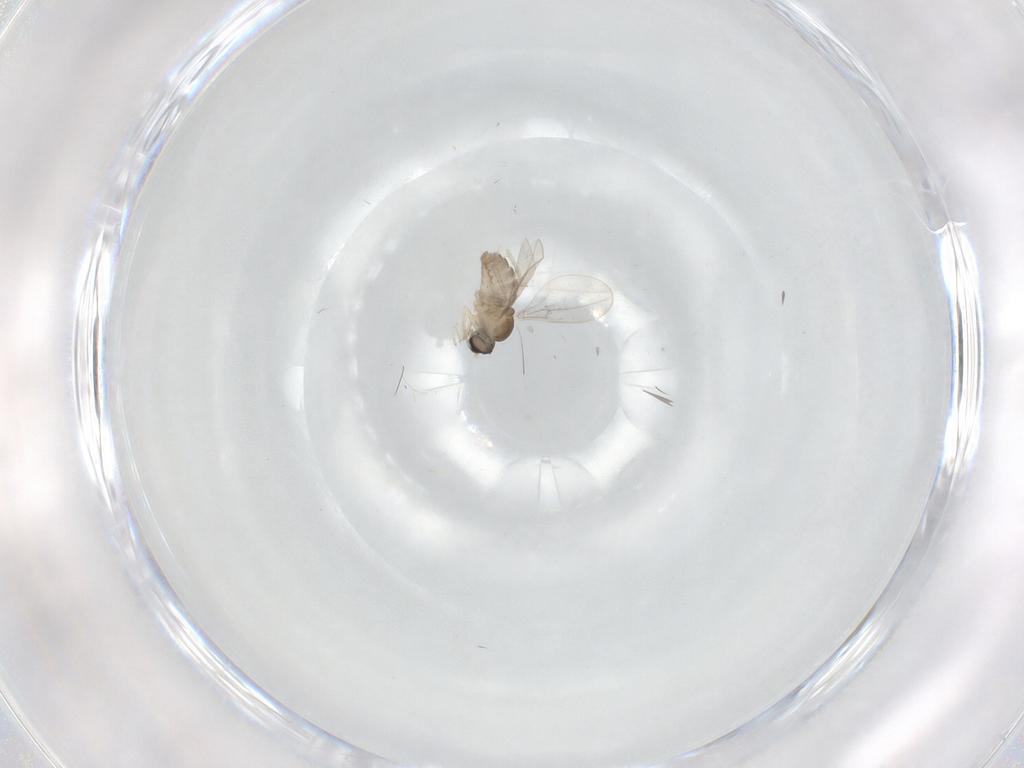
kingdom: Animalia
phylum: Arthropoda
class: Insecta
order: Diptera
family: Cecidomyiidae
